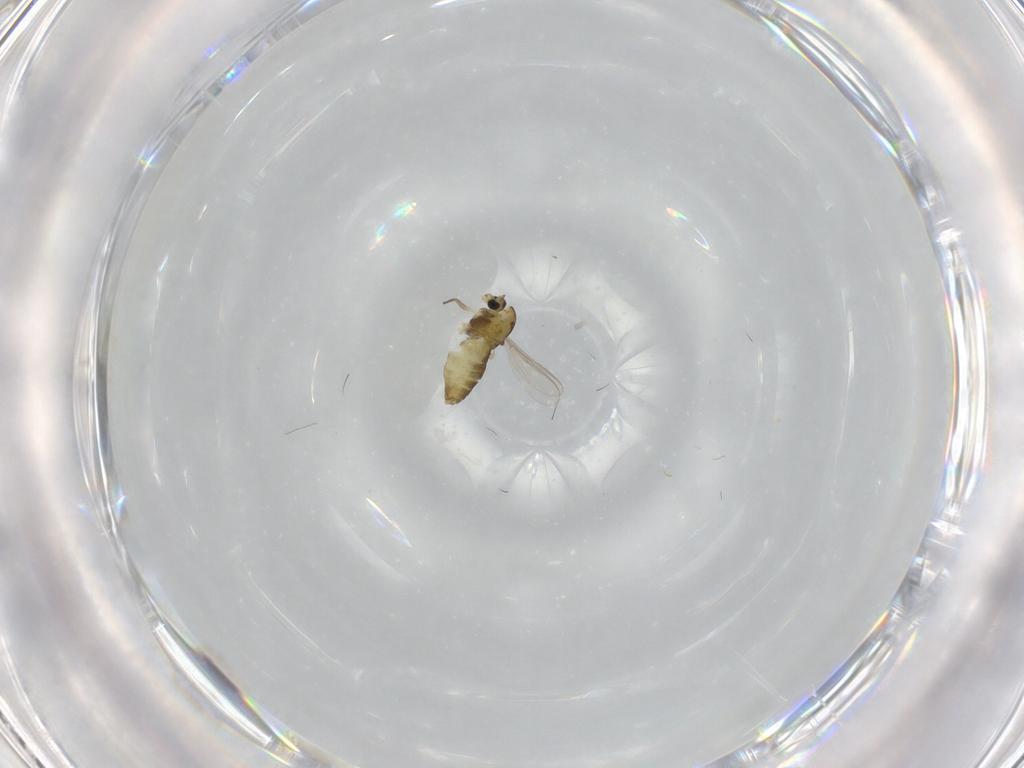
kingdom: Animalia
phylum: Arthropoda
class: Insecta
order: Diptera
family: Chironomidae
